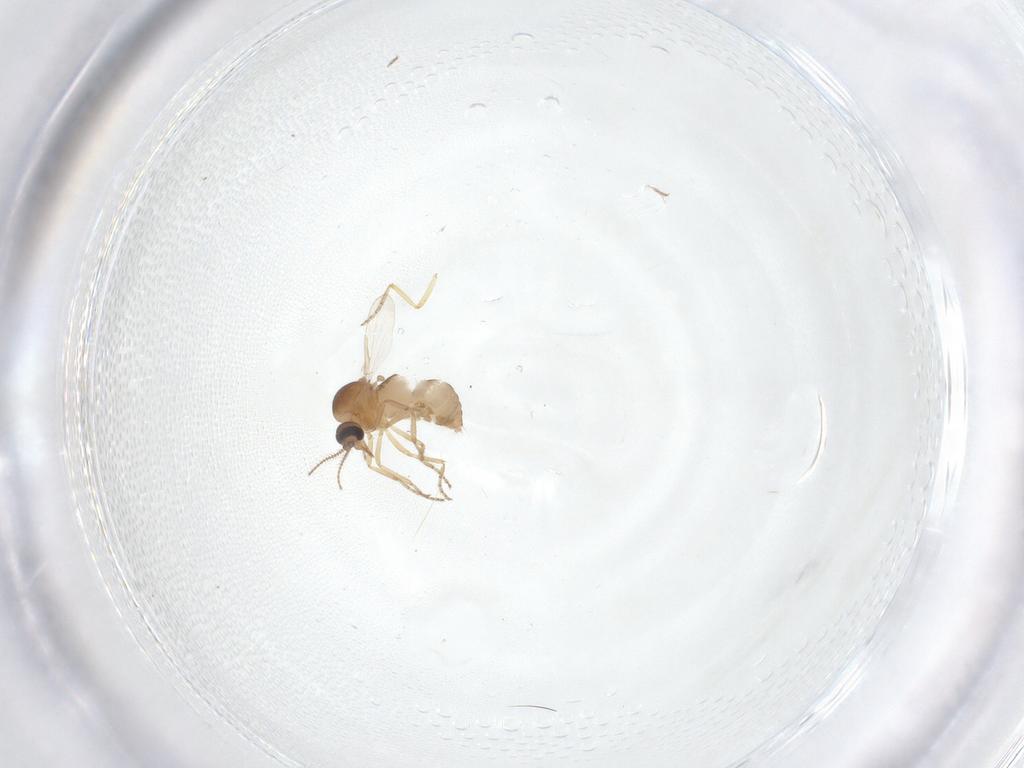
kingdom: Animalia
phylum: Arthropoda
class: Insecta
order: Diptera
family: Ceratopogonidae
